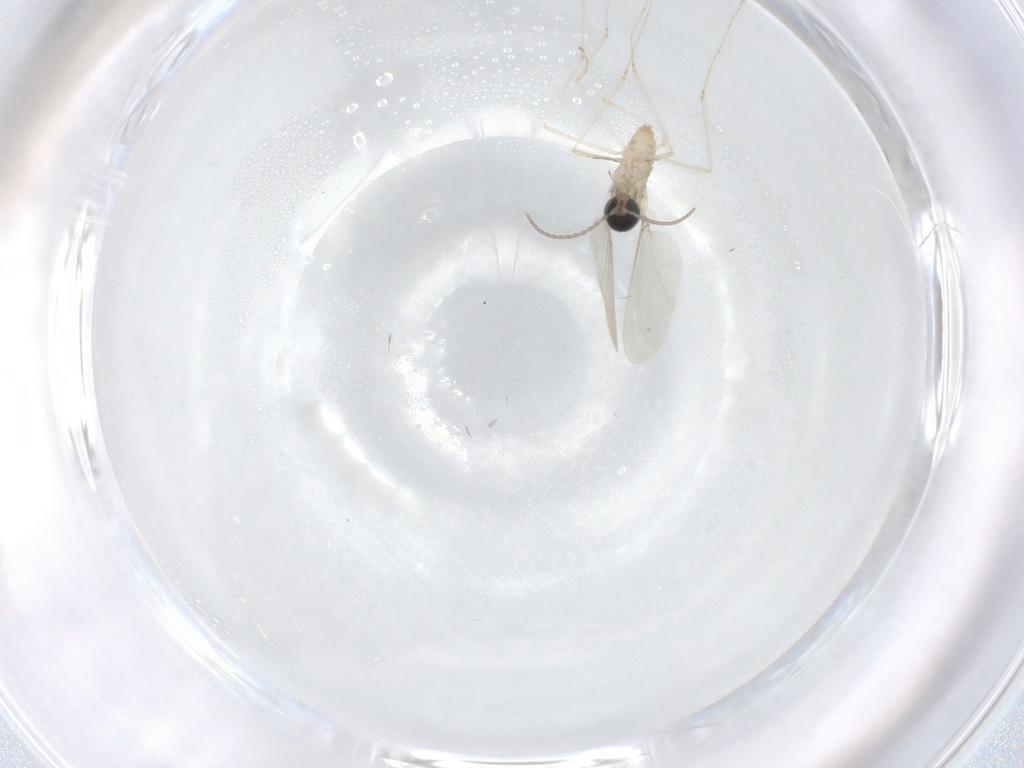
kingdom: Animalia
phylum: Arthropoda
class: Insecta
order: Diptera
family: Cecidomyiidae
